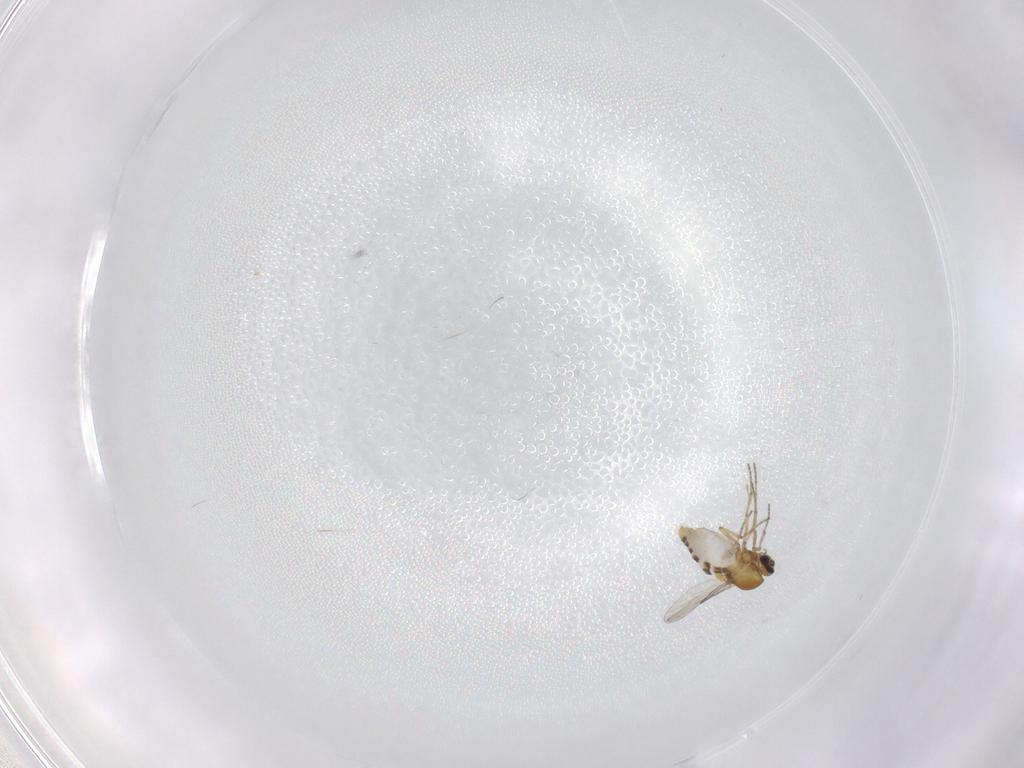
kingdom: Animalia
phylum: Arthropoda
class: Insecta
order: Diptera
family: Ceratopogonidae
